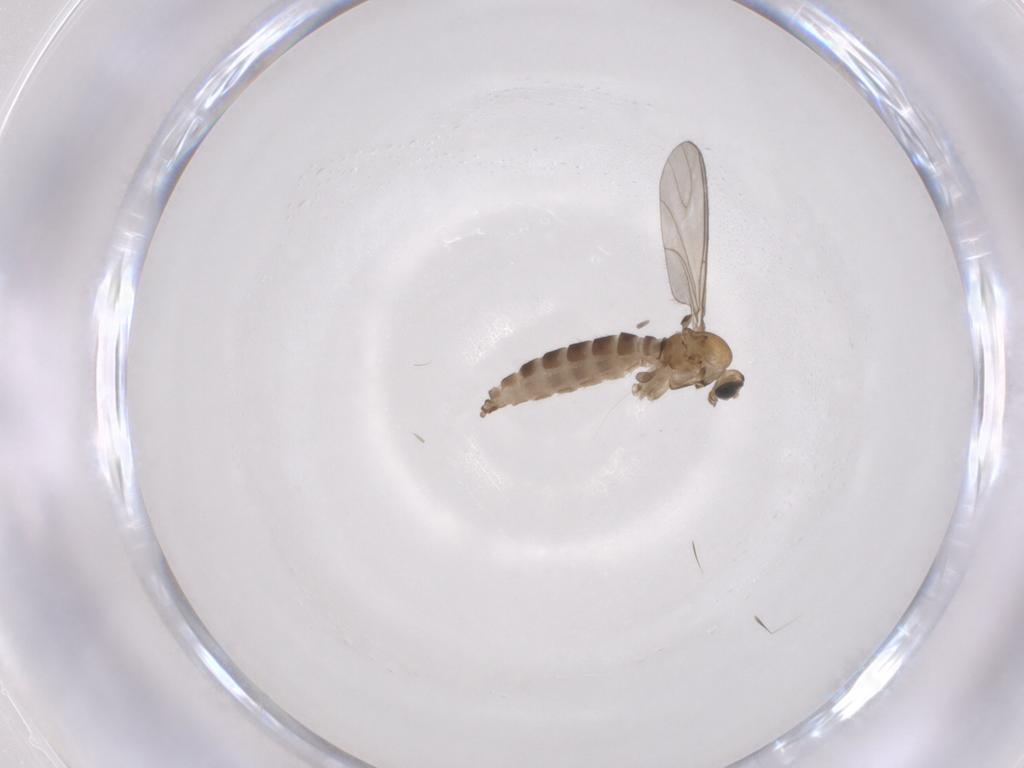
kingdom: Animalia
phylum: Arthropoda
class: Insecta
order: Diptera
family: Sciaridae
